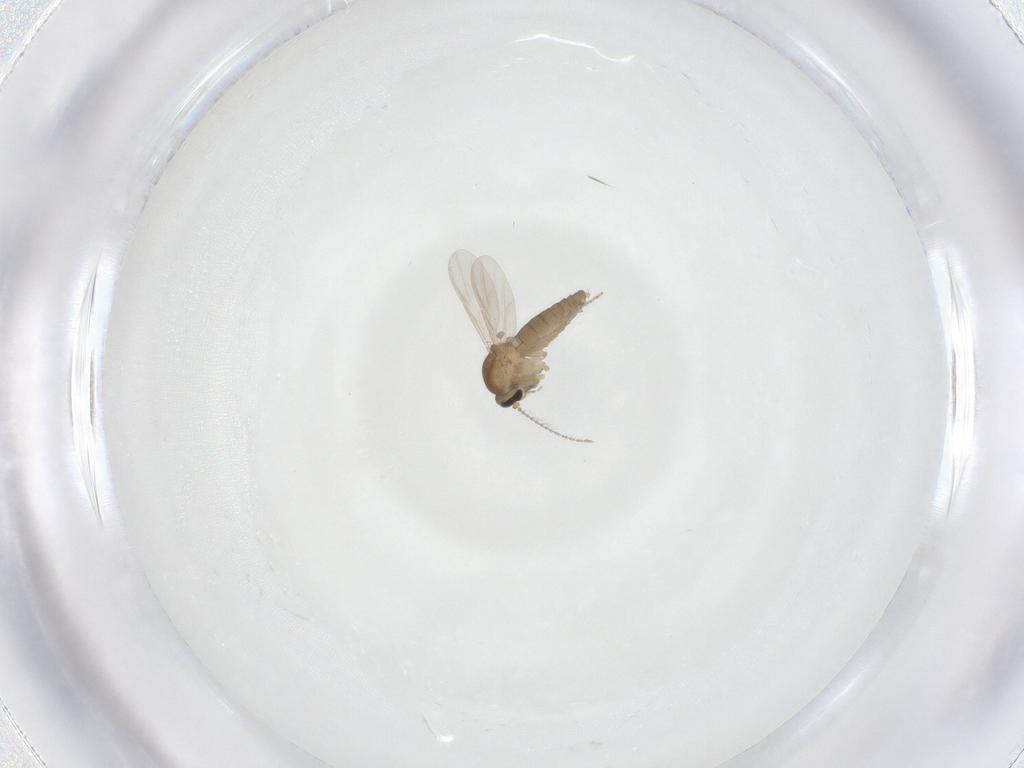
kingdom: Animalia
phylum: Arthropoda
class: Insecta
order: Diptera
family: Ceratopogonidae
